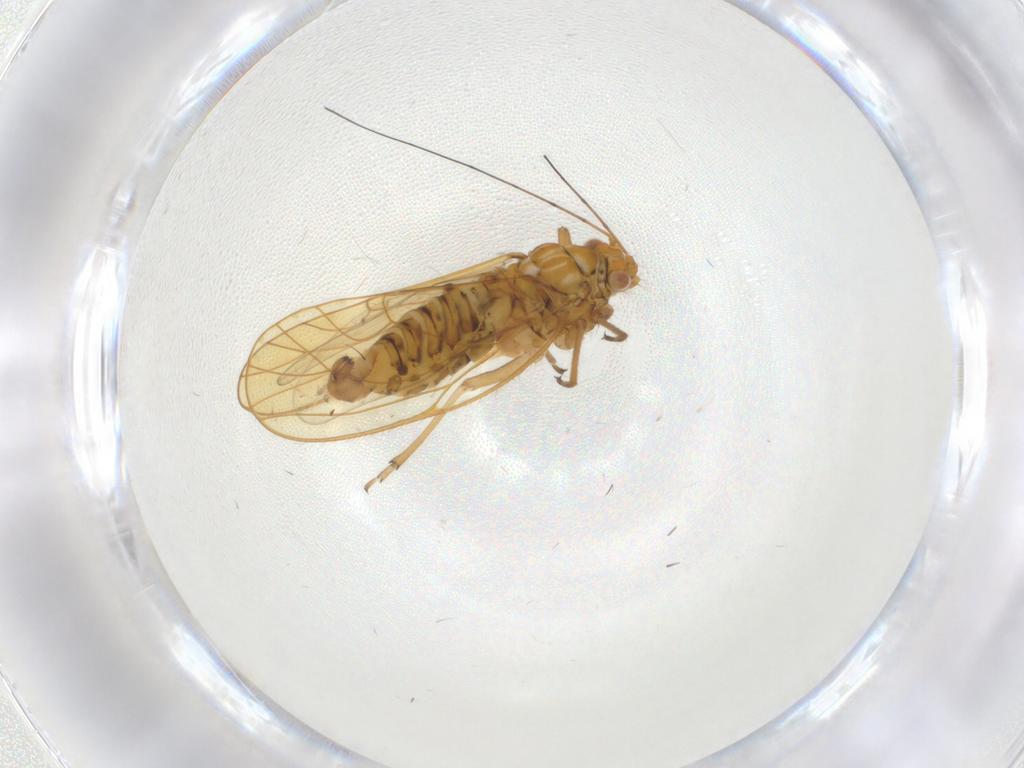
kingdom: Animalia
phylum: Arthropoda
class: Insecta
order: Hemiptera
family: Psyllidae
